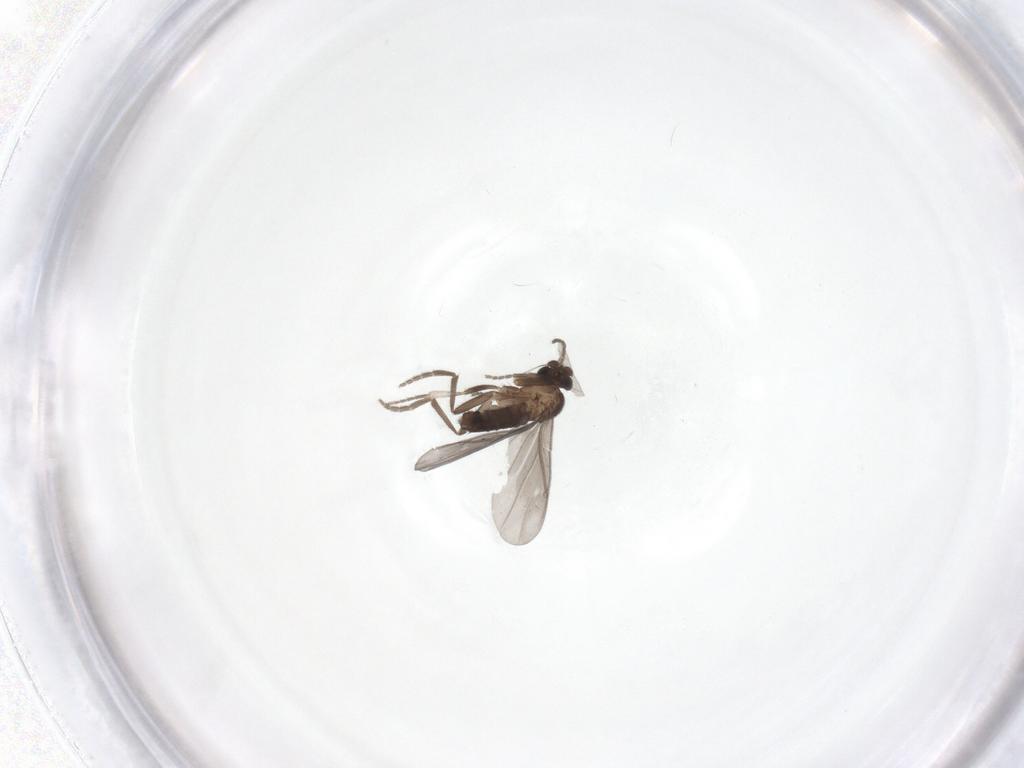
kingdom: Animalia
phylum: Arthropoda
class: Insecta
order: Diptera
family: Phoridae
